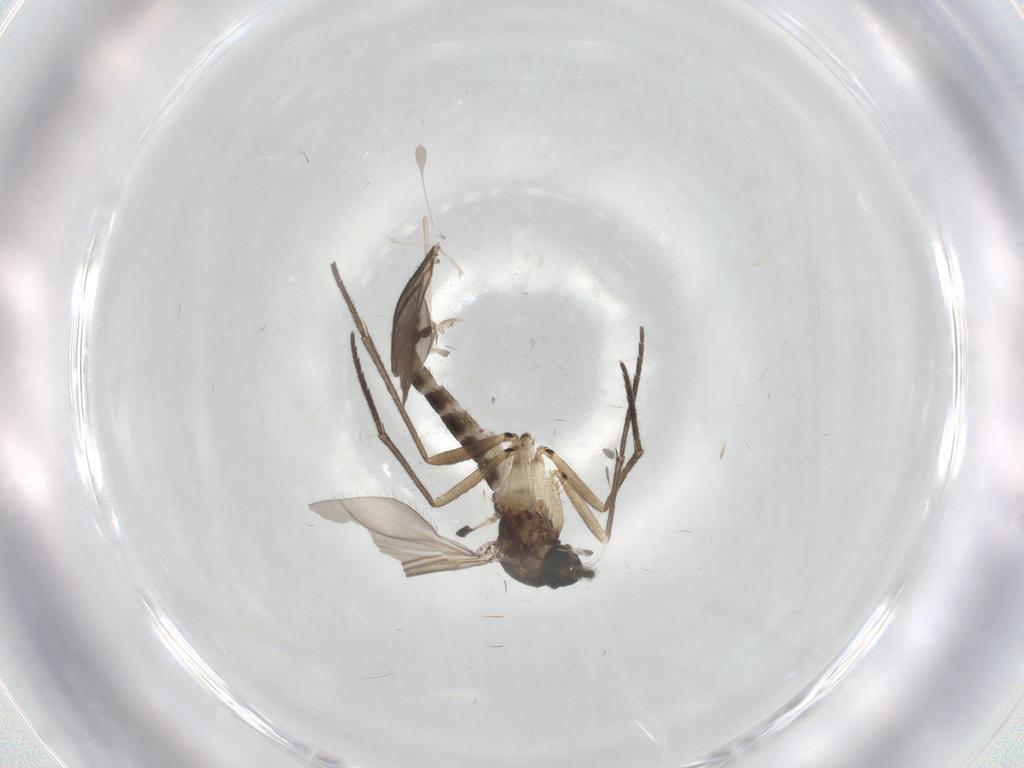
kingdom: Animalia
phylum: Arthropoda
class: Insecta
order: Diptera
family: Sciaridae
